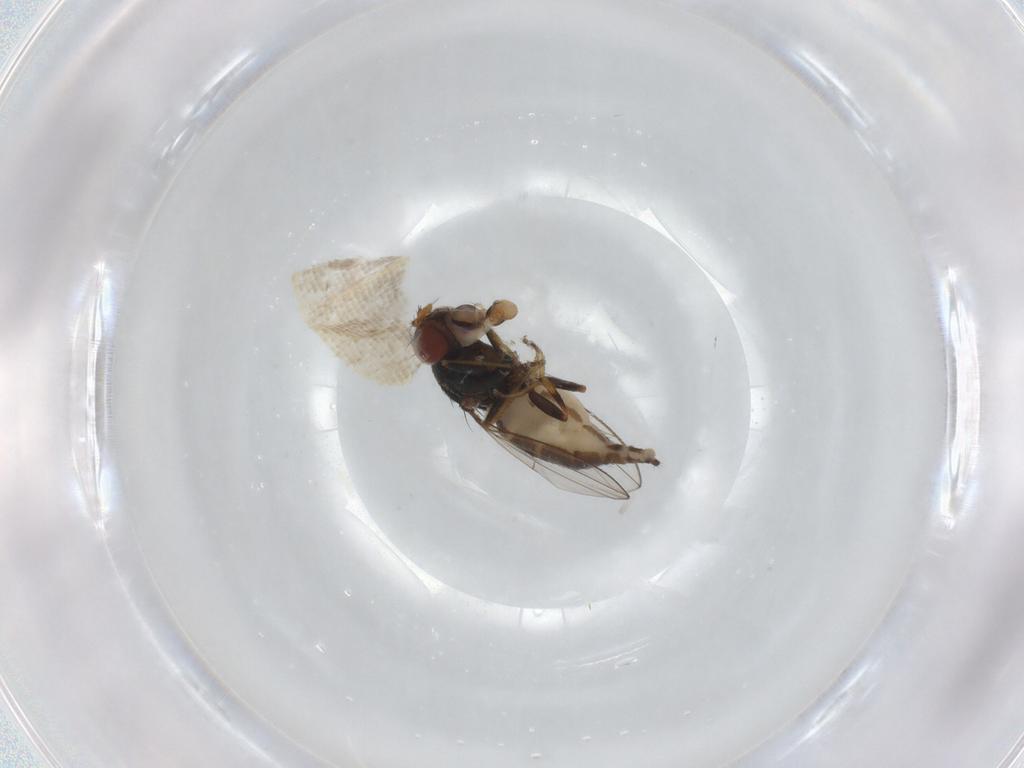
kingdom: Animalia
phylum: Arthropoda
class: Insecta
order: Diptera
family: Ephydridae
